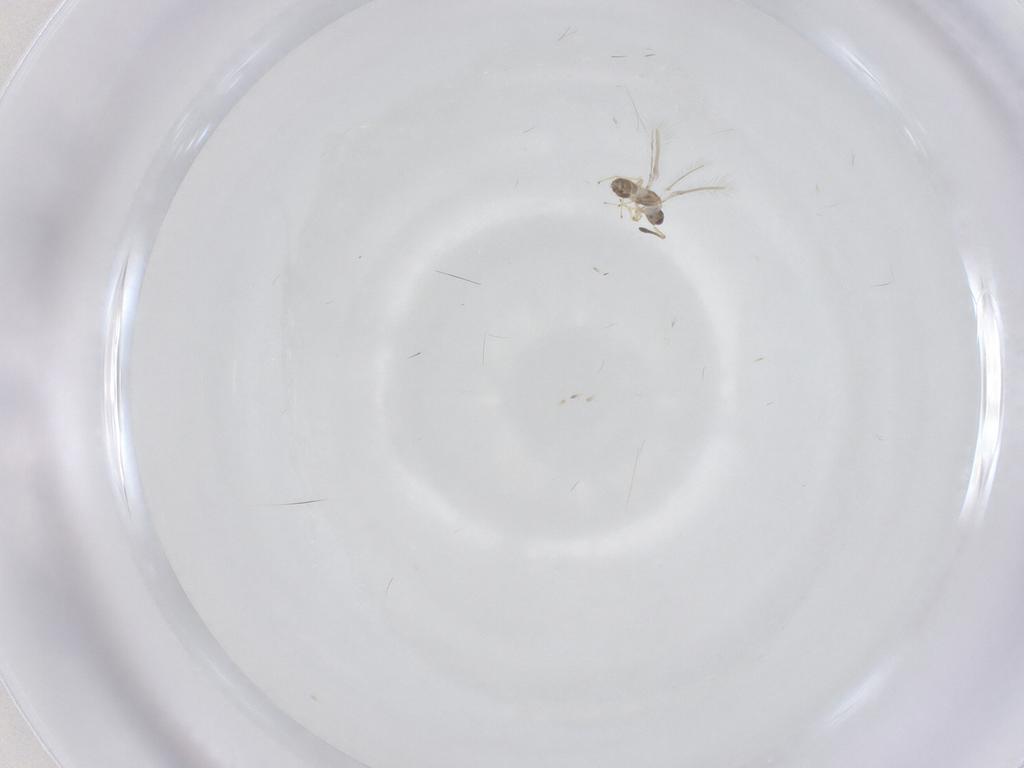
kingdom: Animalia
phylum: Arthropoda
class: Insecta
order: Hymenoptera
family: Mymaridae
